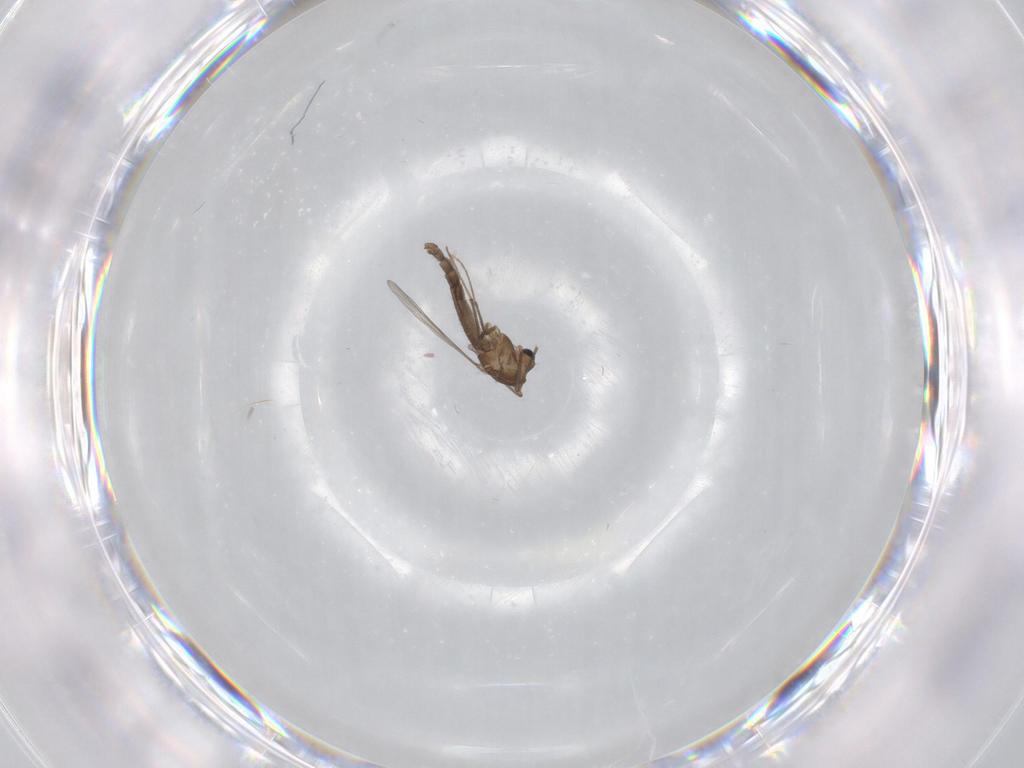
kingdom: Animalia
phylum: Arthropoda
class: Insecta
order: Diptera
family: Chironomidae
